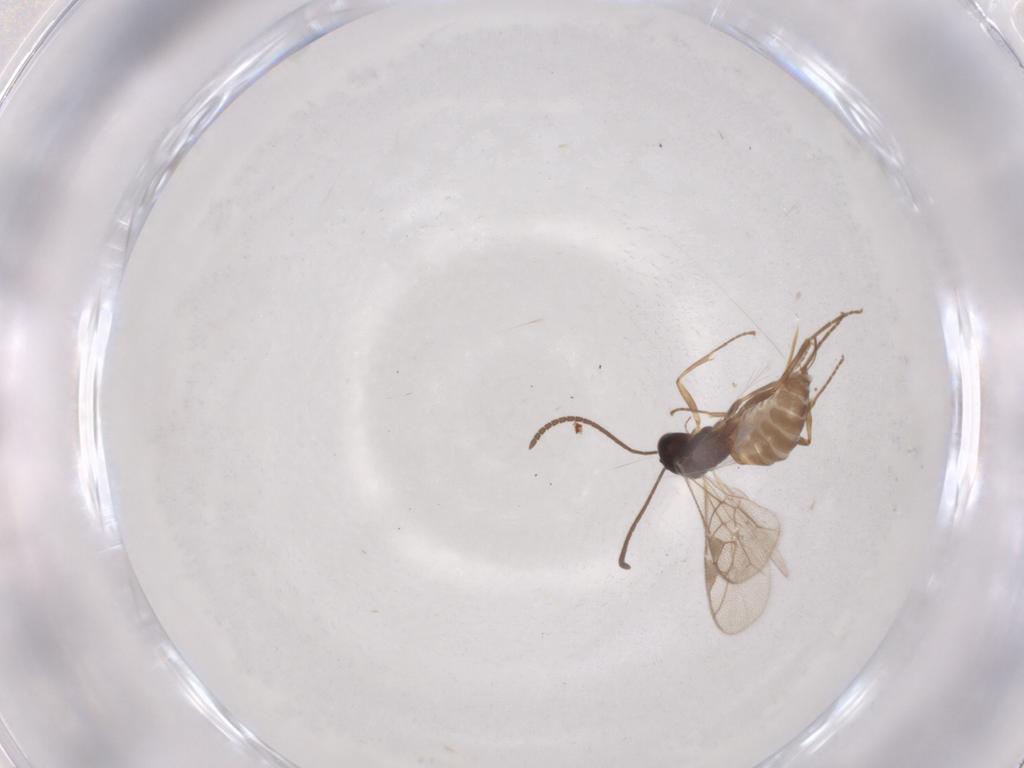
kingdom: Animalia
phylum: Arthropoda
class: Insecta
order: Hymenoptera
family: Ichneumonidae
